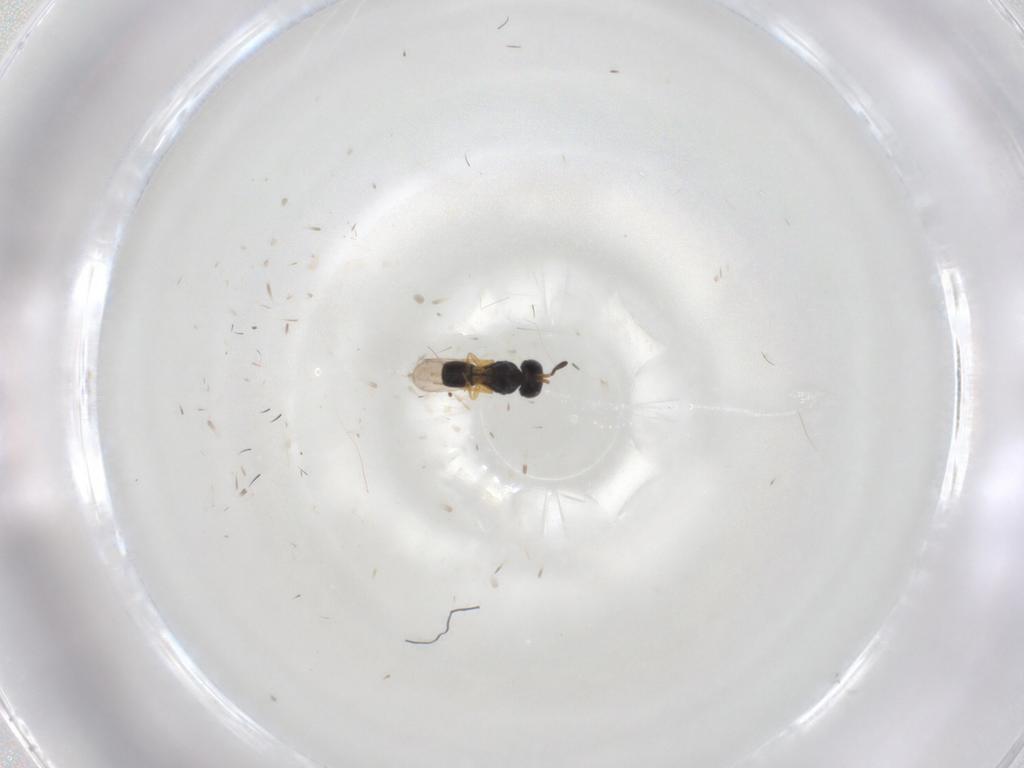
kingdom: Animalia
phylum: Arthropoda
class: Insecta
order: Hymenoptera
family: Scelionidae
